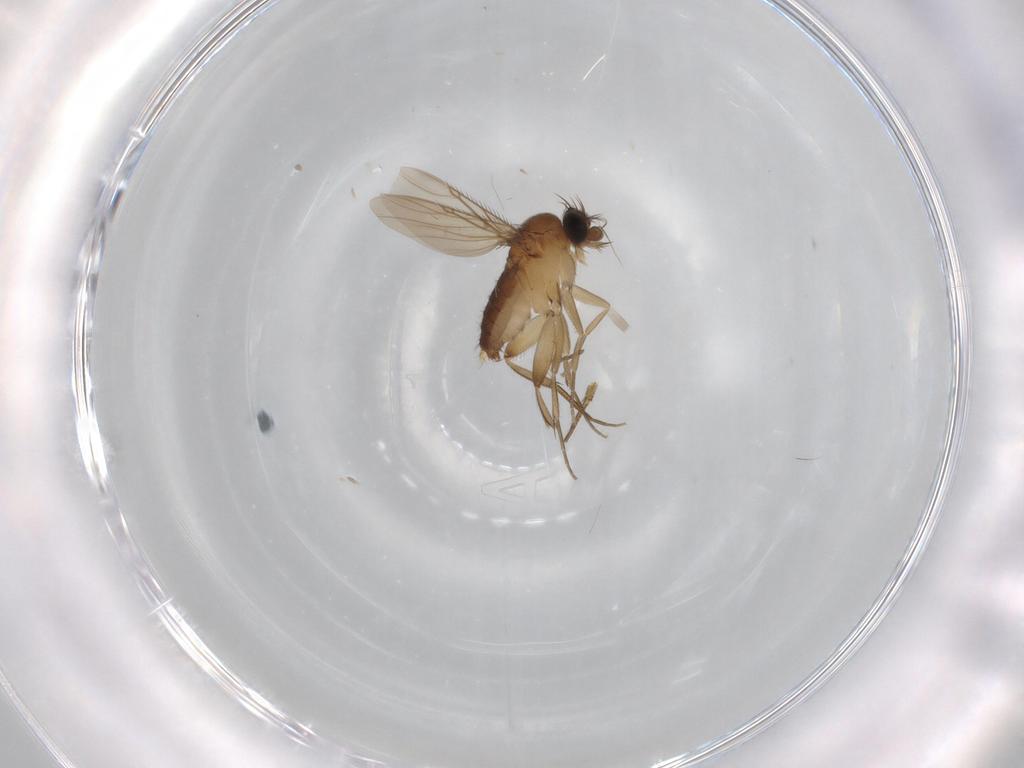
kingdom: Animalia
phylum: Arthropoda
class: Insecta
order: Diptera
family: Phoridae
